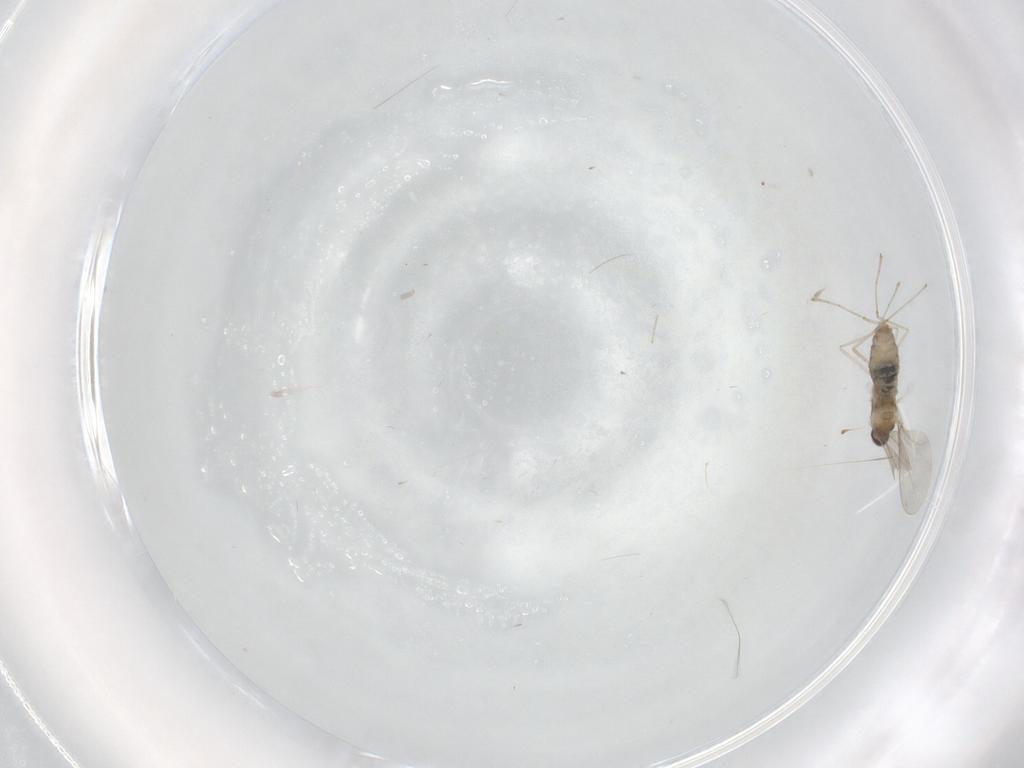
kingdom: Animalia
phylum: Arthropoda
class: Insecta
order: Diptera
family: Cecidomyiidae
